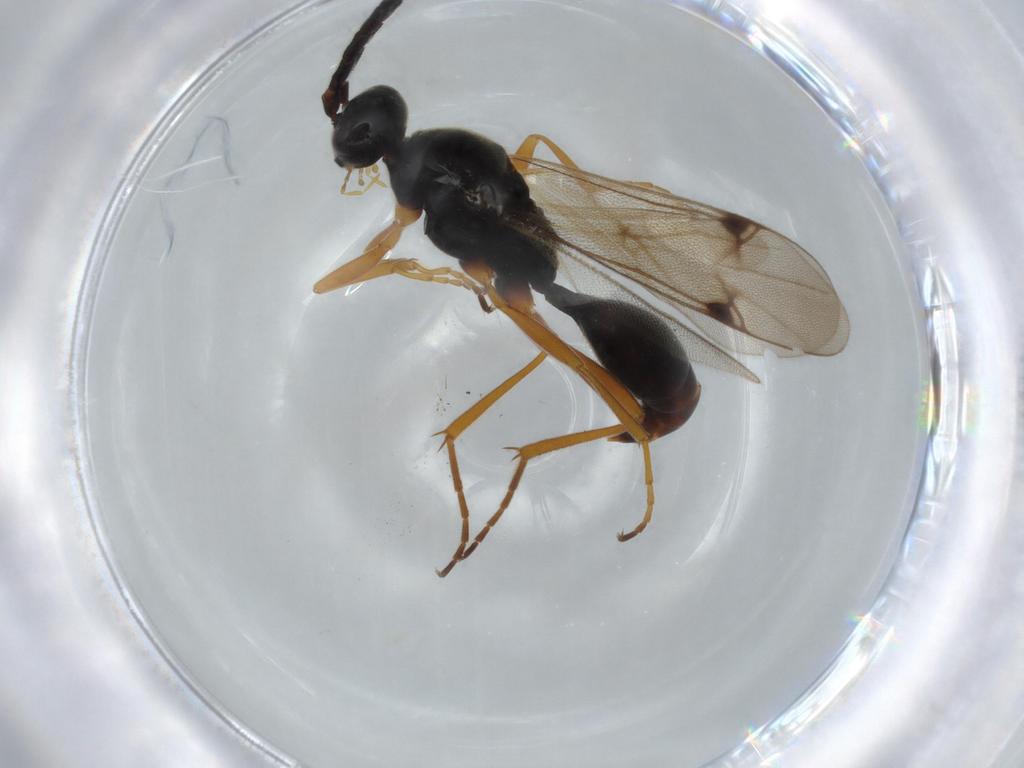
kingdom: Animalia
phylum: Arthropoda
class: Insecta
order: Hymenoptera
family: Proctotrupidae
